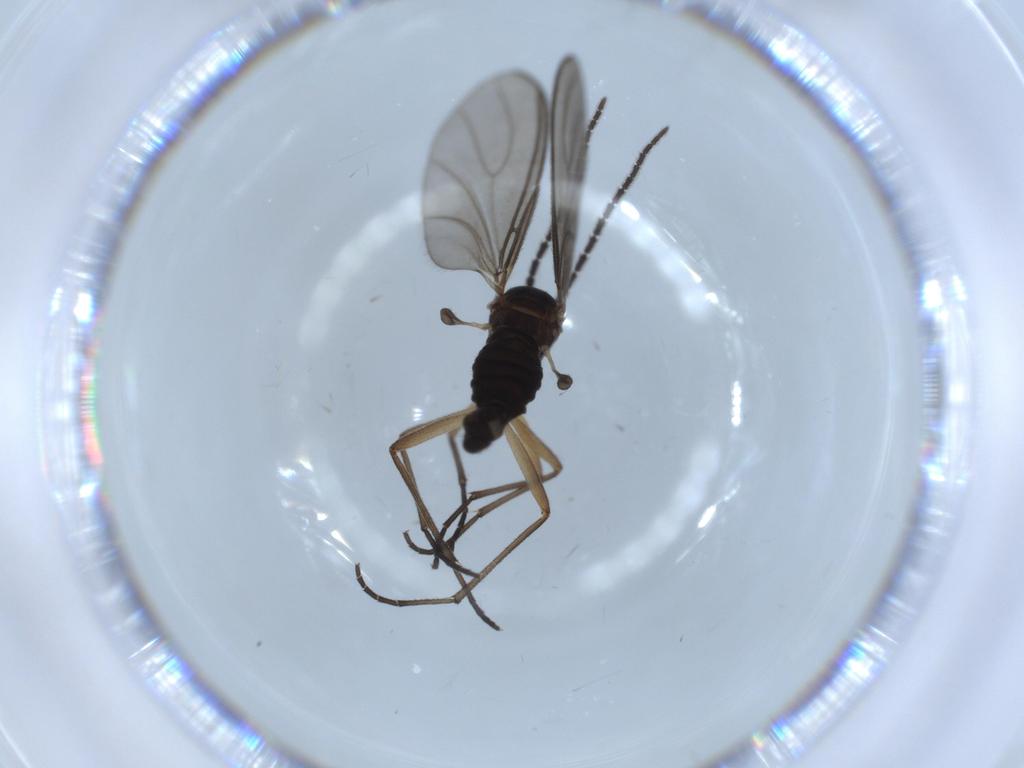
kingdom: Animalia
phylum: Arthropoda
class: Insecta
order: Diptera
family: Sciaridae
